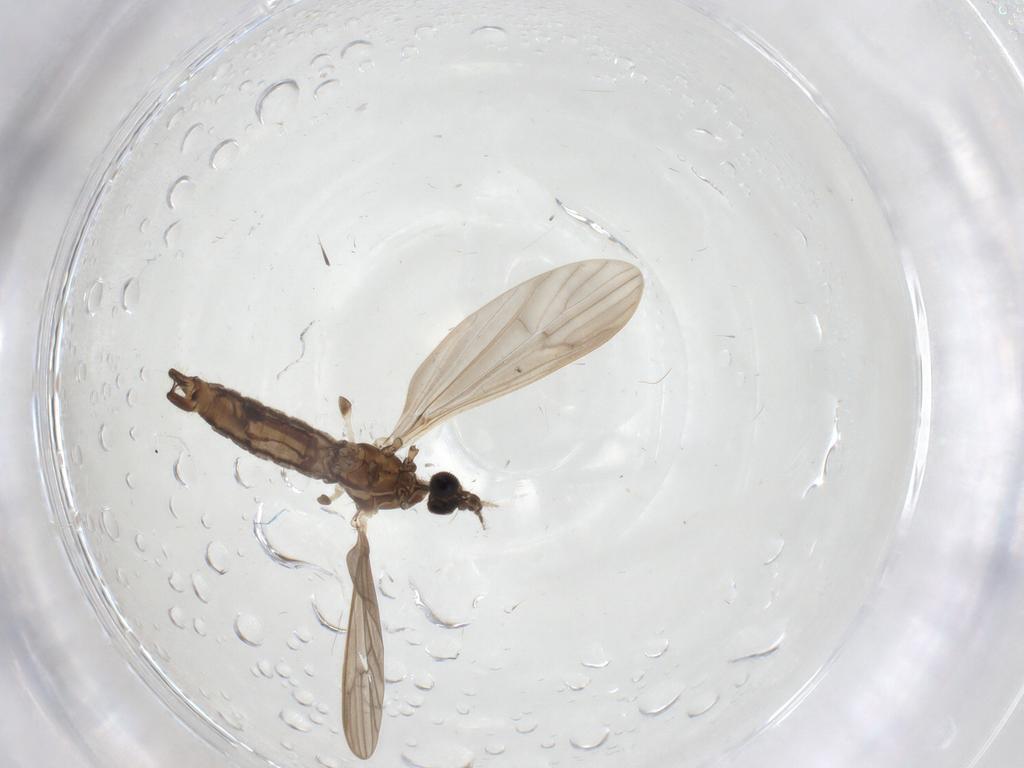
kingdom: Animalia
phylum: Arthropoda
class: Insecta
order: Diptera
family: Limoniidae
